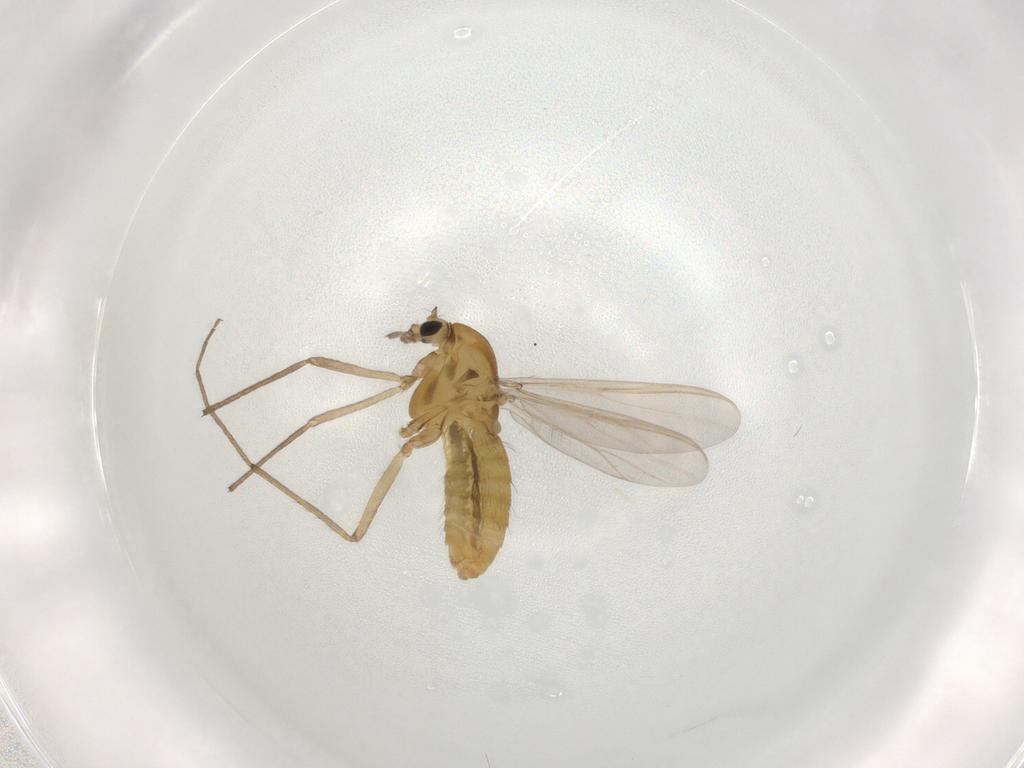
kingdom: Animalia
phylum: Arthropoda
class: Insecta
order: Diptera
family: Chironomidae
